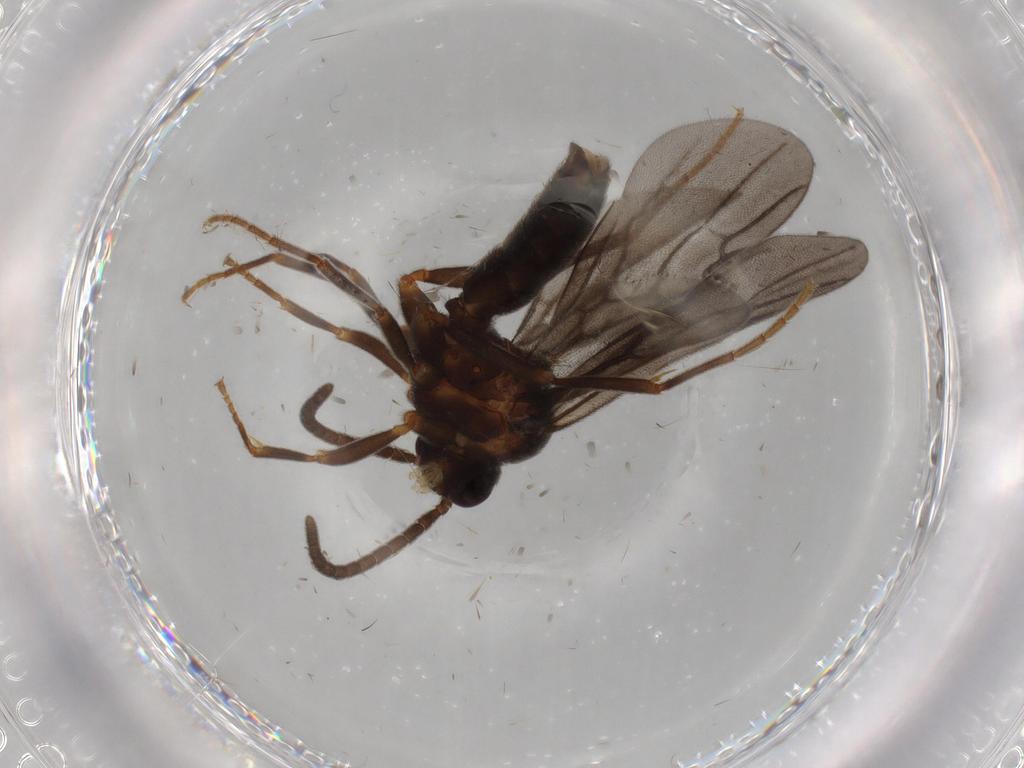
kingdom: Animalia
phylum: Arthropoda
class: Insecta
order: Hymenoptera
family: Formicidae
